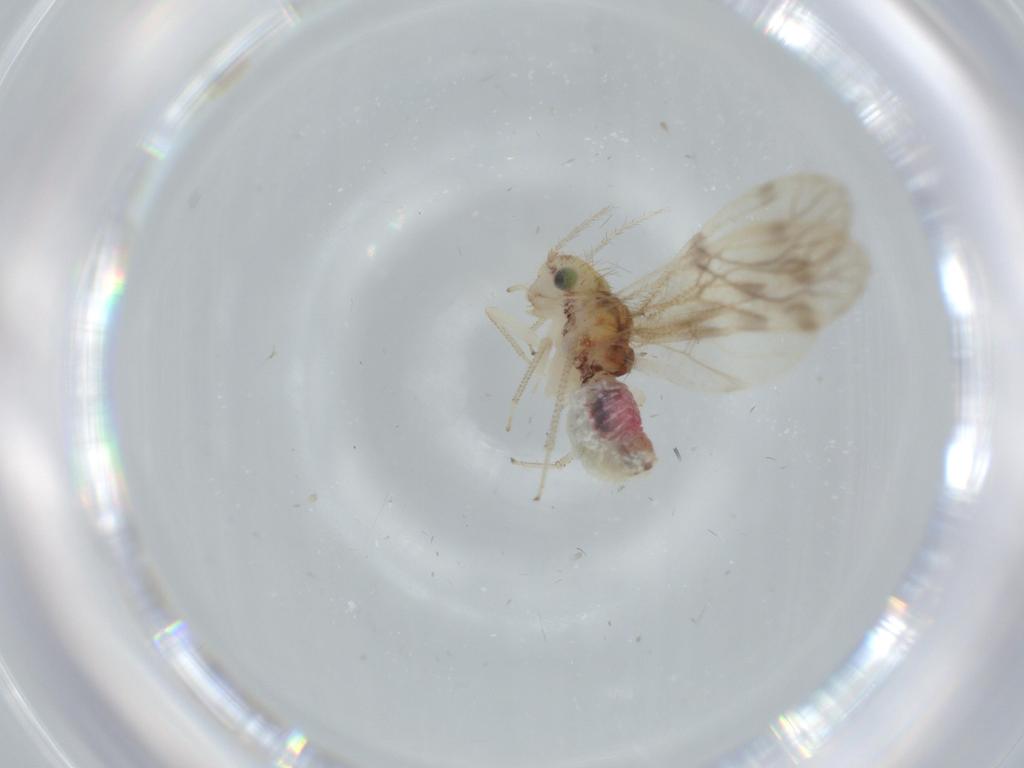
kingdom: Animalia
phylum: Arthropoda
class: Insecta
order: Psocodea
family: Pseudocaeciliidae
